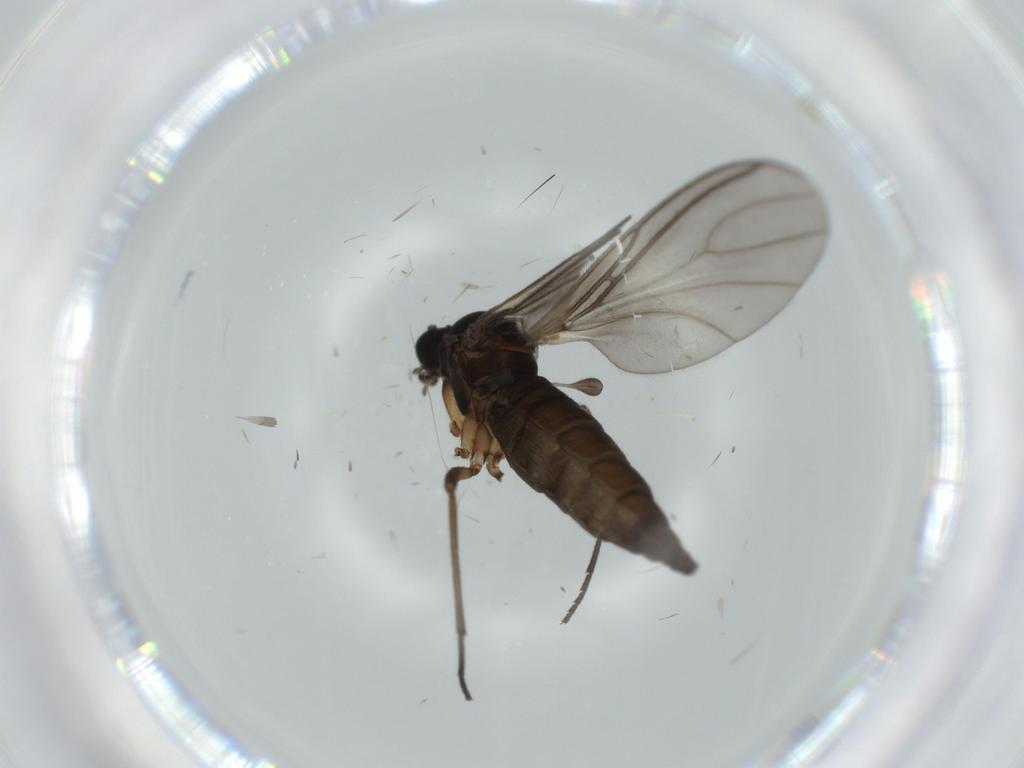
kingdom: Animalia
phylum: Arthropoda
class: Insecta
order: Diptera
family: Sciaridae
